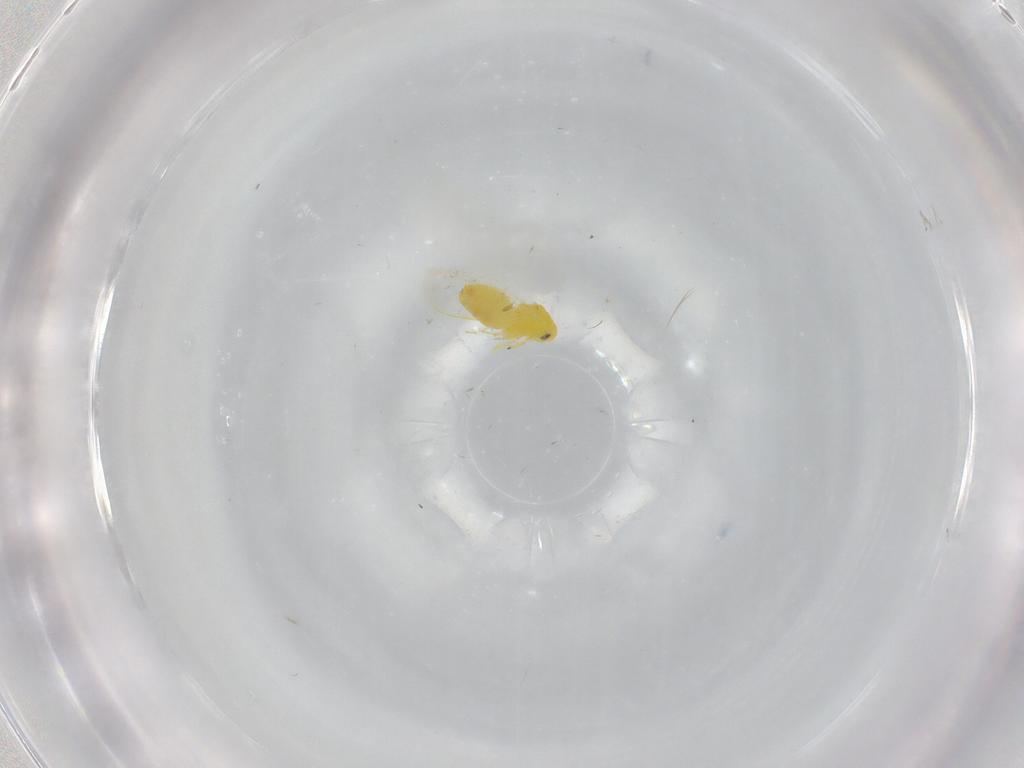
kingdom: Animalia
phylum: Arthropoda
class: Insecta
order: Hemiptera
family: Aleyrodidae
